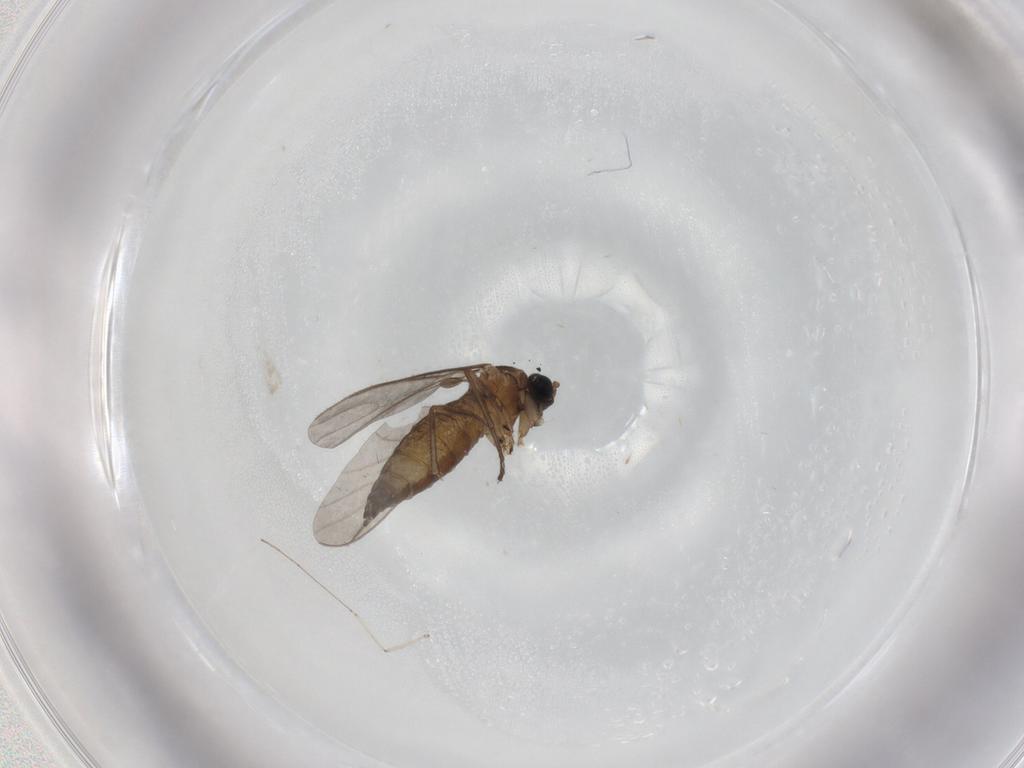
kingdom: Animalia
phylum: Arthropoda
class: Insecta
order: Diptera
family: Sciaridae
